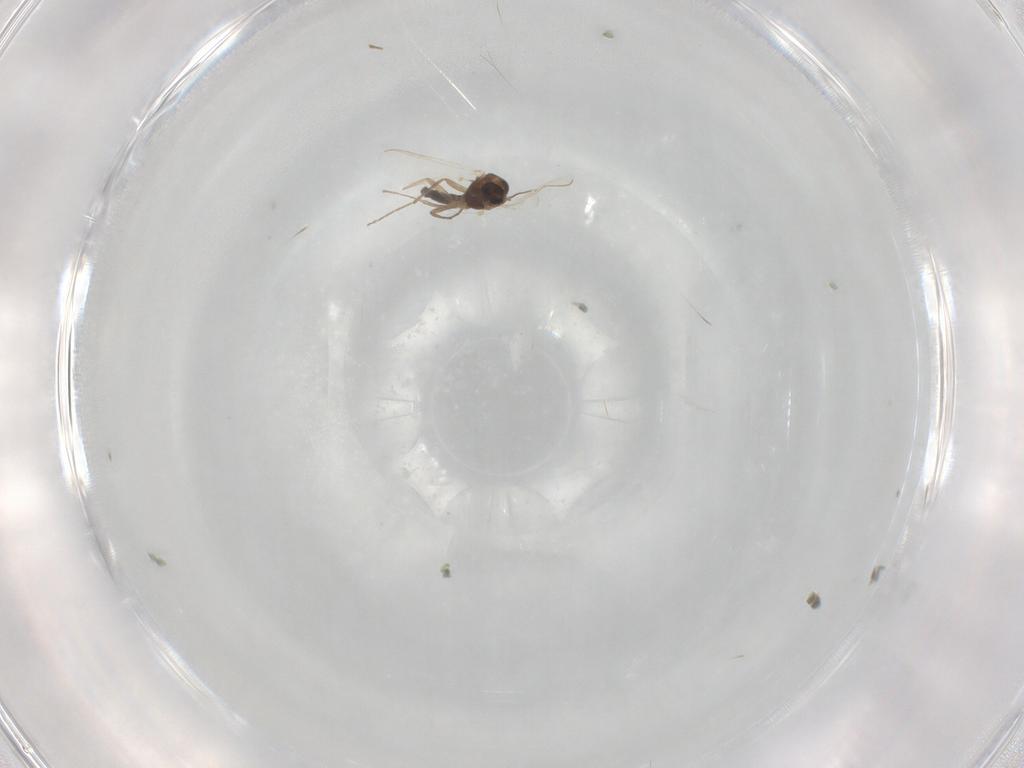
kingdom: Animalia
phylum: Arthropoda
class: Insecta
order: Diptera
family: Chironomidae
